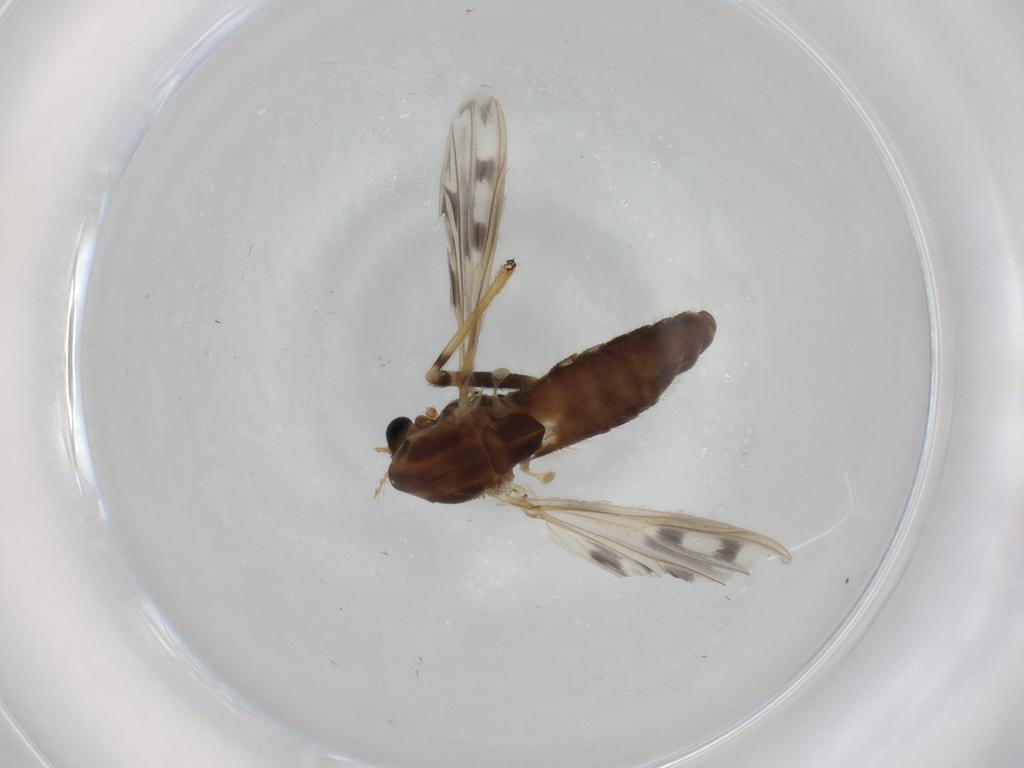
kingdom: Animalia
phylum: Arthropoda
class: Insecta
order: Diptera
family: Chironomidae
